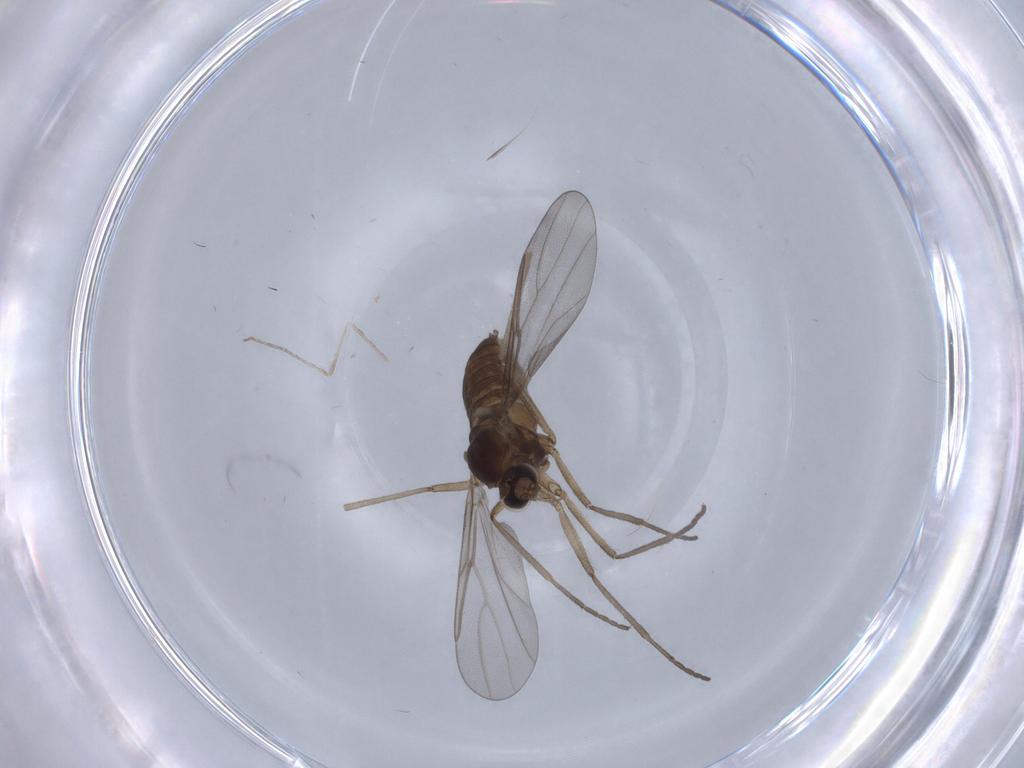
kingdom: Animalia
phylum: Arthropoda
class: Insecta
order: Diptera
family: Cecidomyiidae
